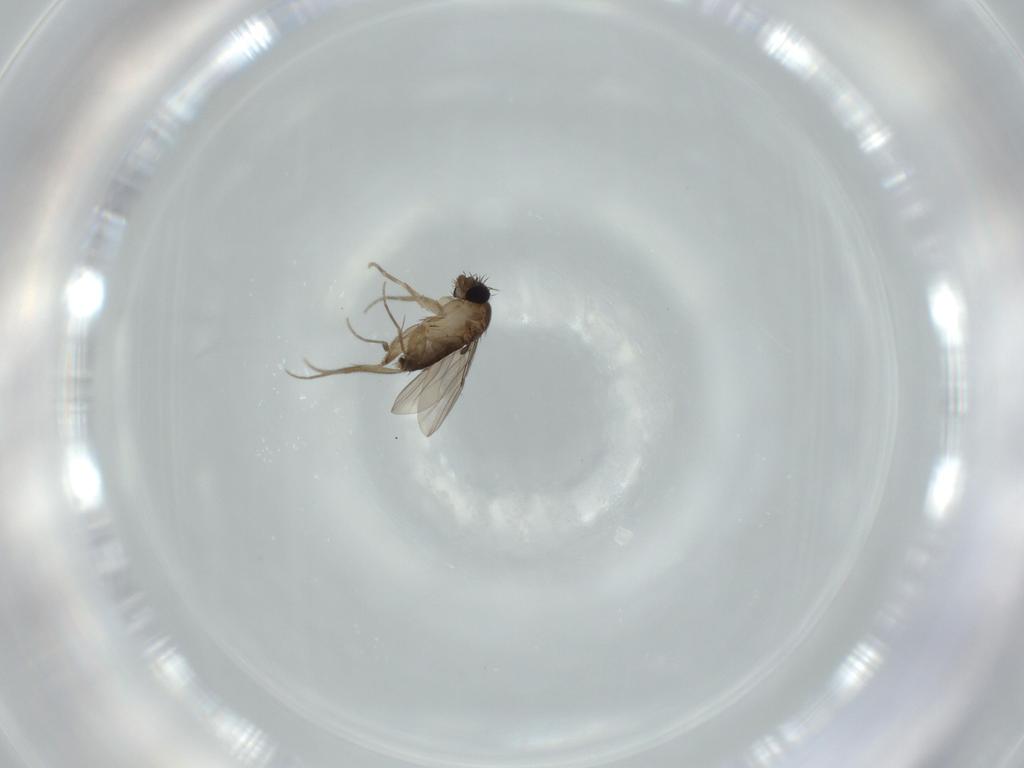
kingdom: Animalia
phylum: Arthropoda
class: Insecta
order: Diptera
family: Phoridae
